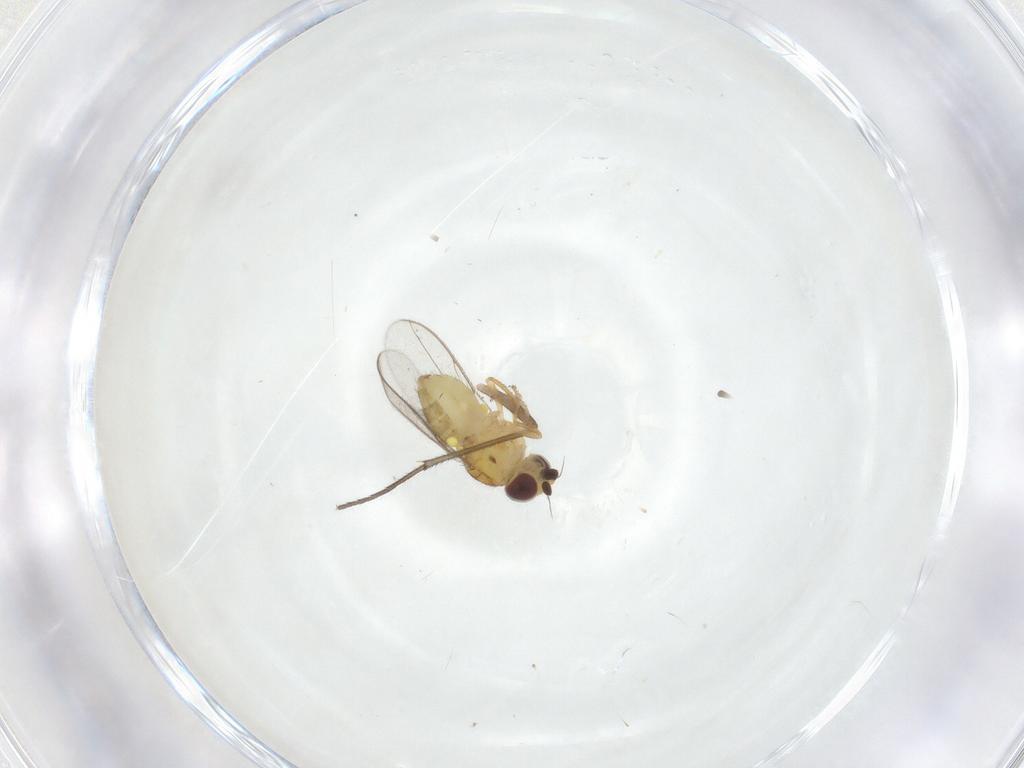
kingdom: Animalia
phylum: Arthropoda
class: Insecta
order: Diptera
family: Chloropidae
